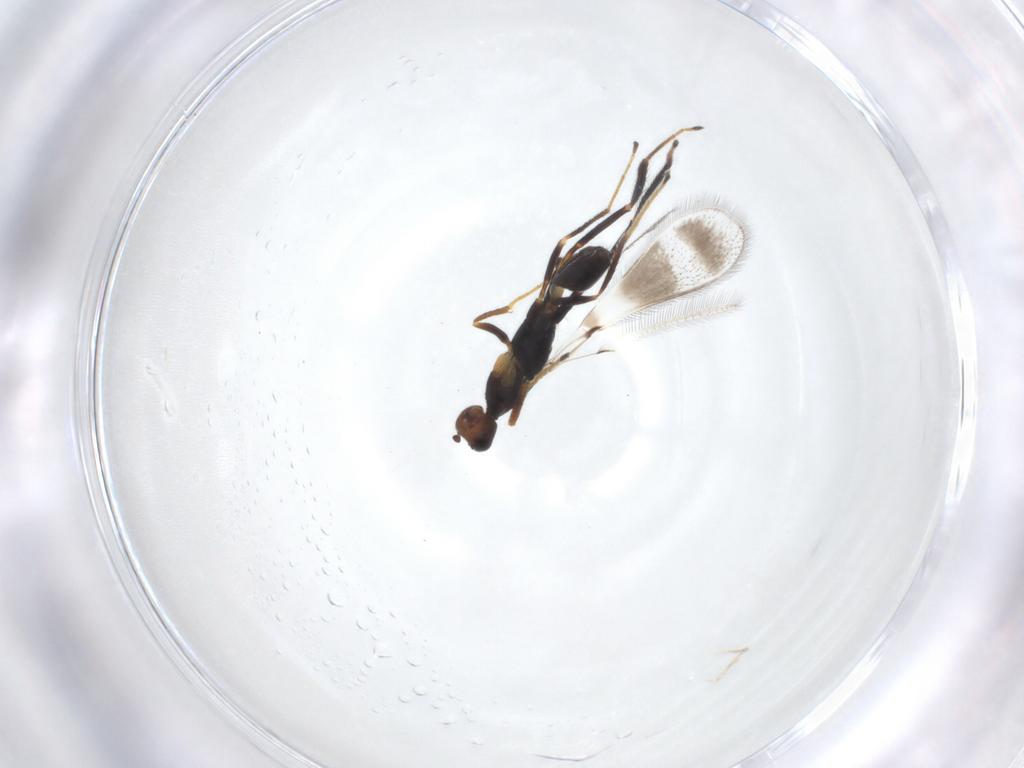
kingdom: Animalia
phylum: Arthropoda
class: Insecta
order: Hymenoptera
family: Mymaridae
